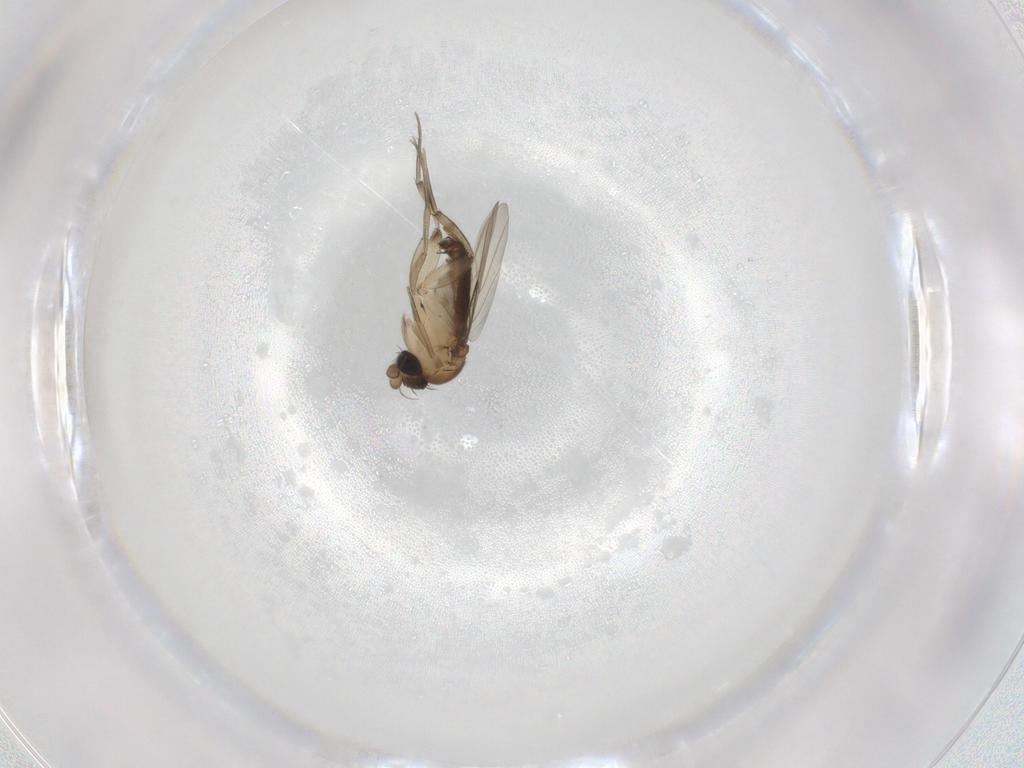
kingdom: Animalia
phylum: Arthropoda
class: Insecta
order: Diptera
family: Phoridae
